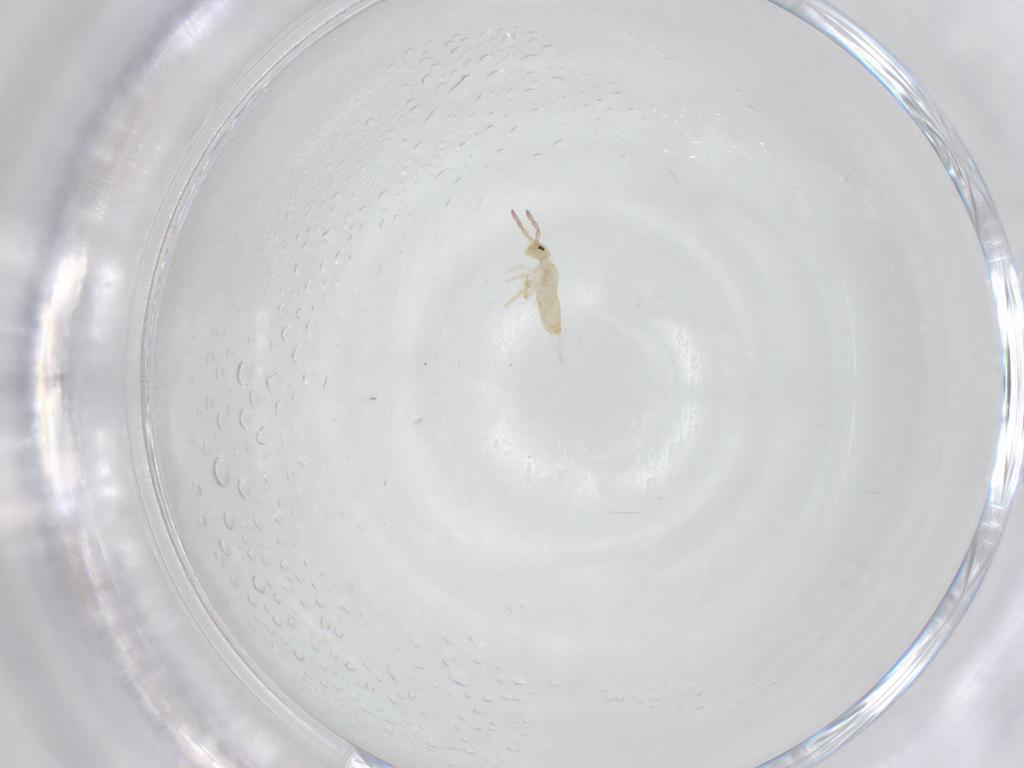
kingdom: Animalia
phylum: Arthropoda
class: Collembola
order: Entomobryomorpha
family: Entomobryidae
